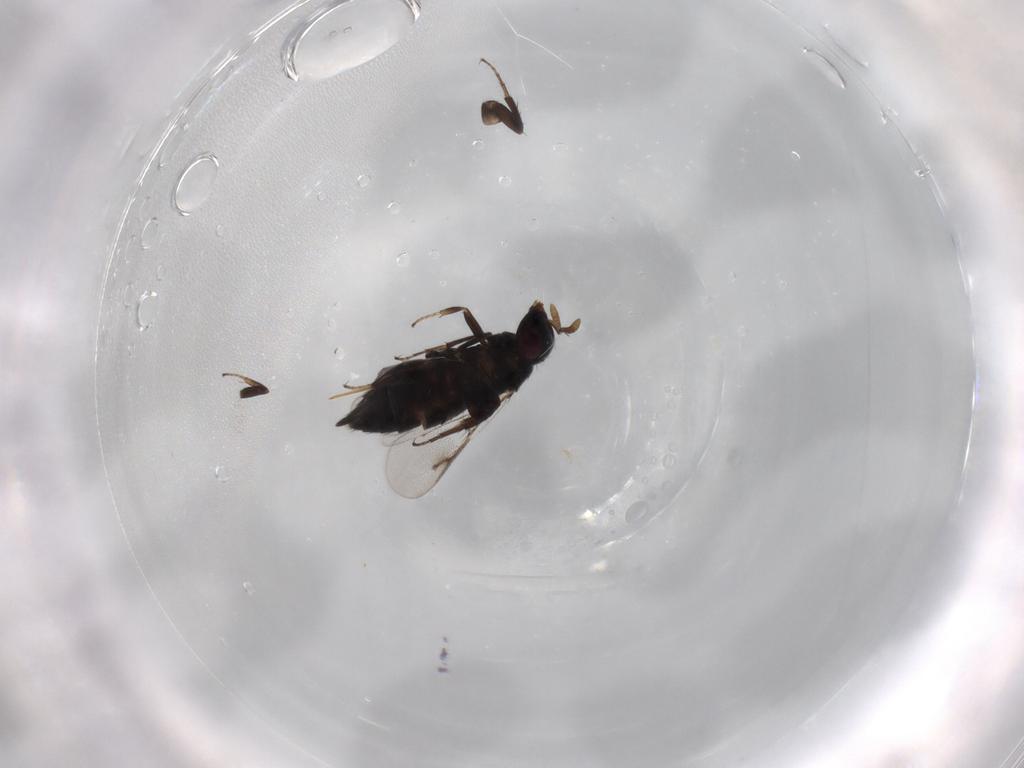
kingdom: Animalia
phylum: Arthropoda
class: Insecta
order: Hymenoptera
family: Pirenidae
